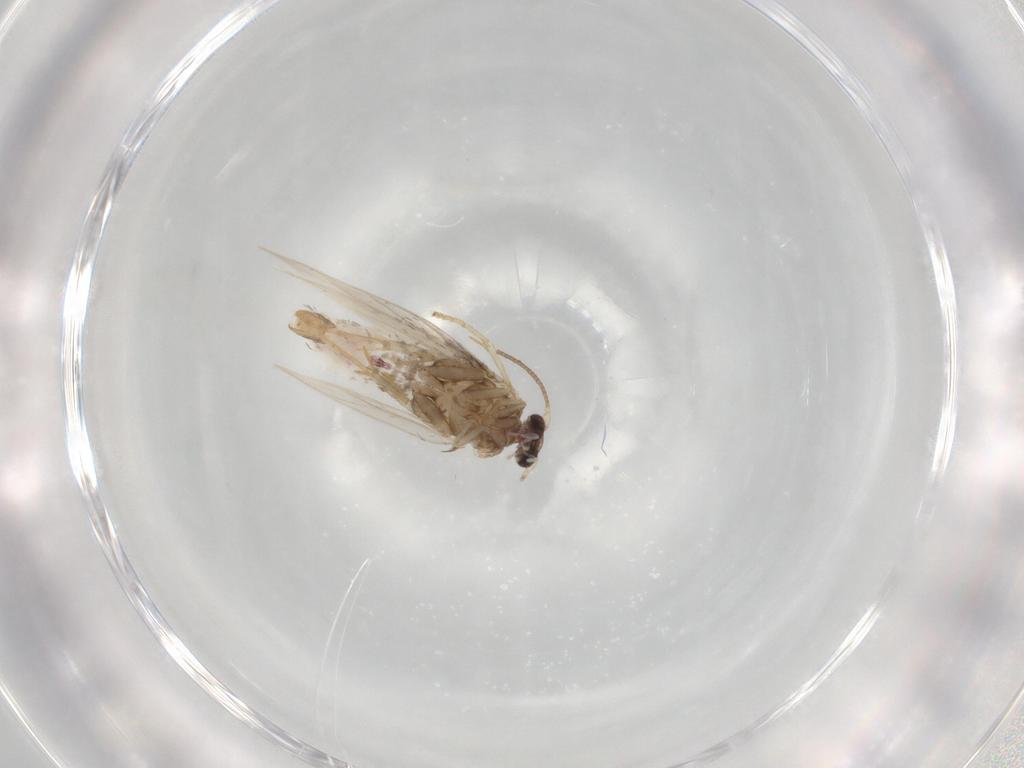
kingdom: Animalia
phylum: Arthropoda
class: Insecta
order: Lepidoptera
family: Nepticulidae
